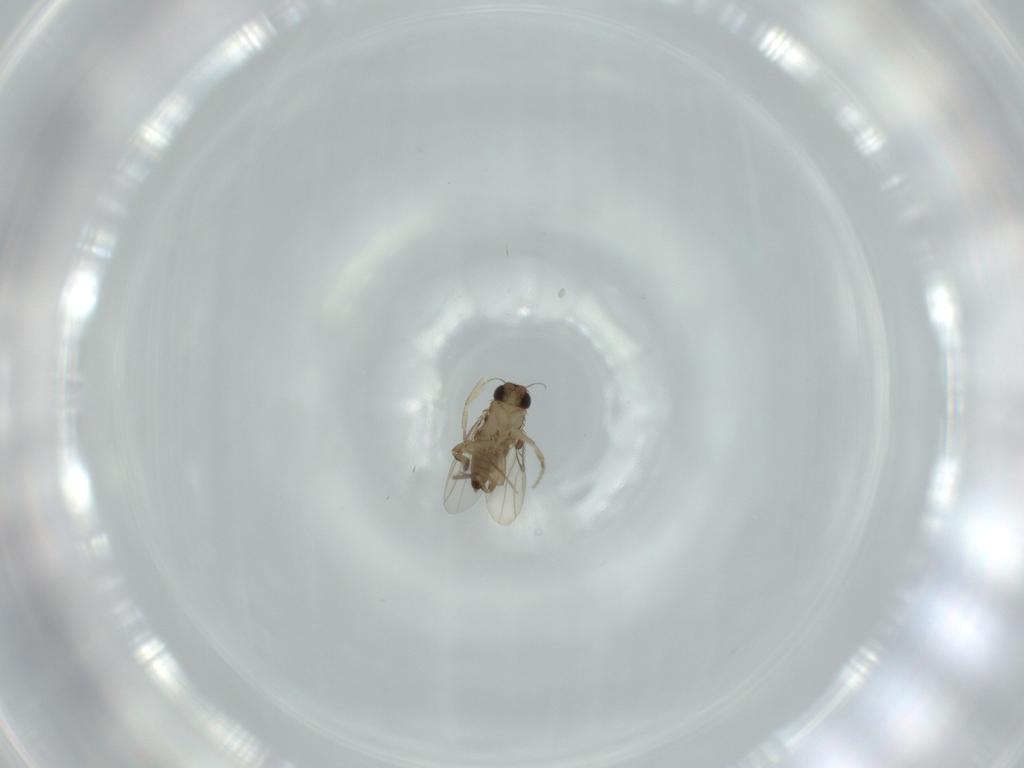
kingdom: Animalia
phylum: Arthropoda
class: Insecta
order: Diptera
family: Phoridae
